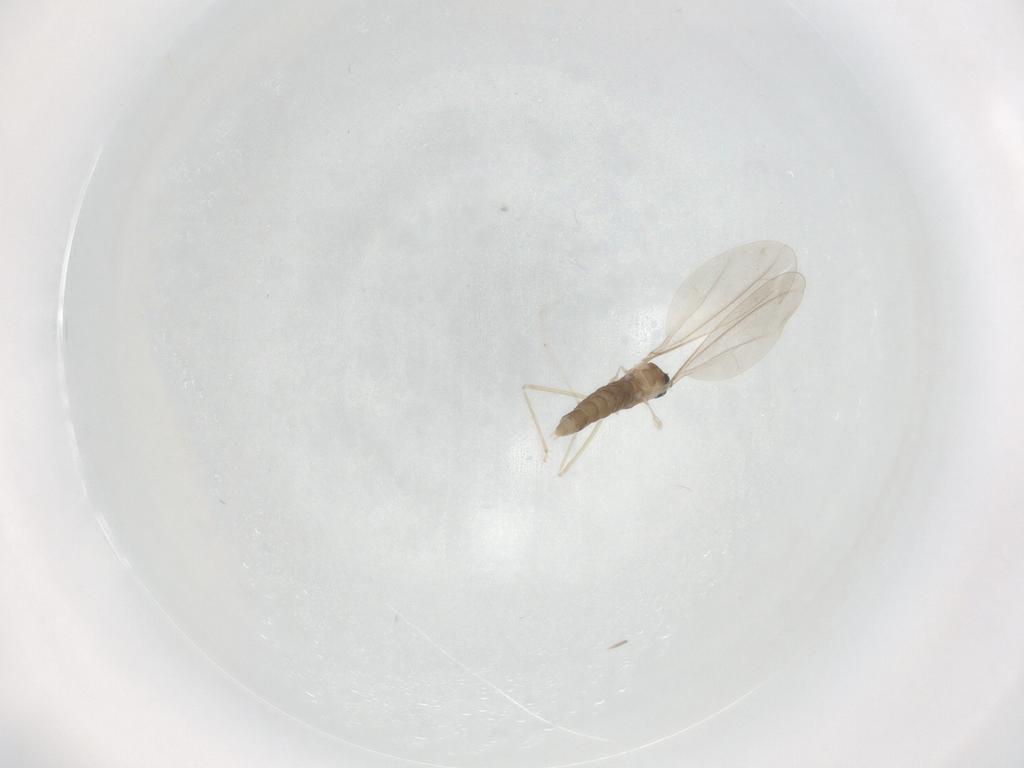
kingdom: Animalia
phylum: Arthropoda
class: Insecta
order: Diptera
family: Cecidomyiidae
